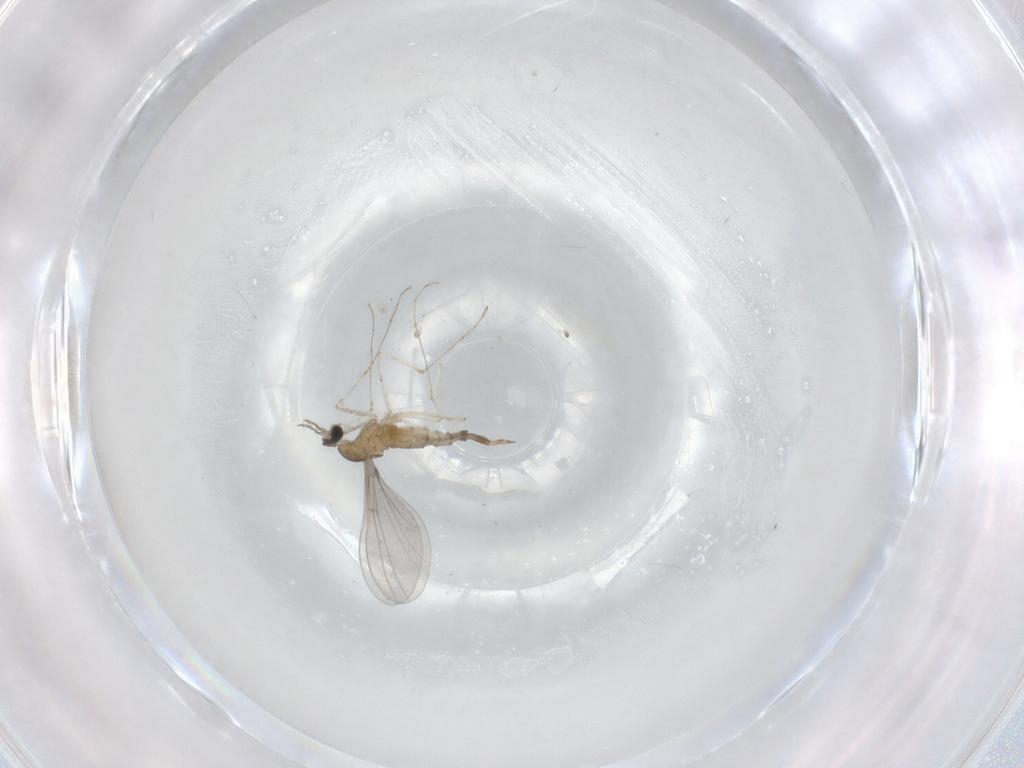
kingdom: Animalia
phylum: Arthropoda
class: Insecta
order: Diptera
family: Cecidomyiidae
